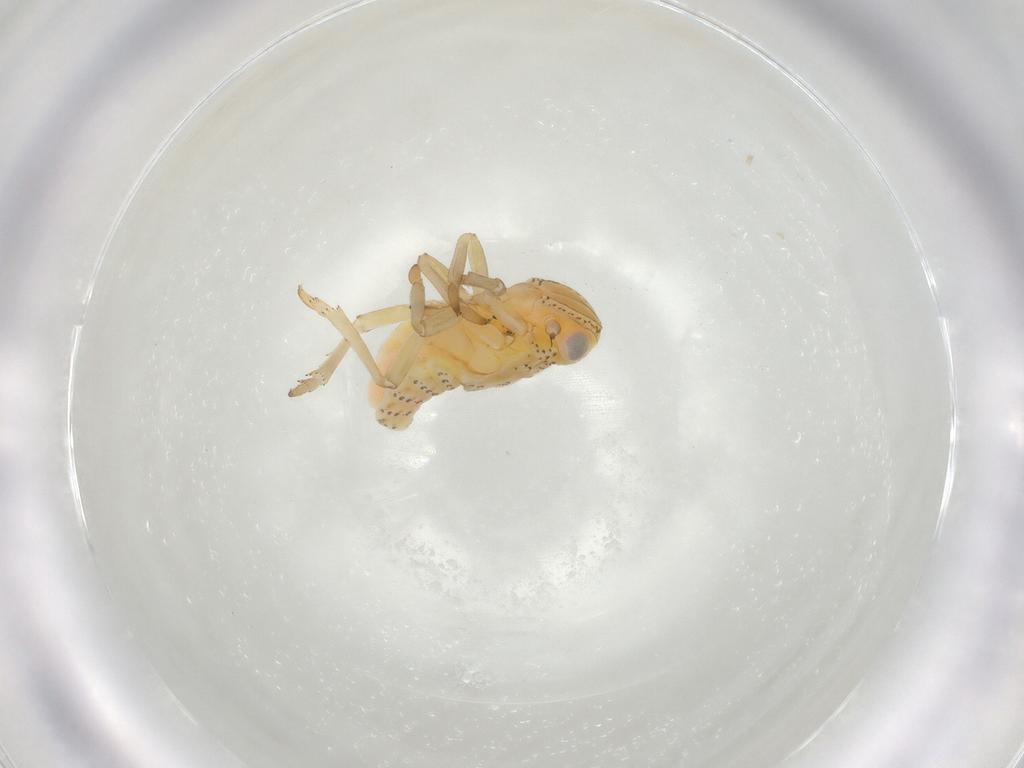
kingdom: Animalia
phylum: Arthropoda
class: Insecta
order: Hemiptera
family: Tropiduchidae
